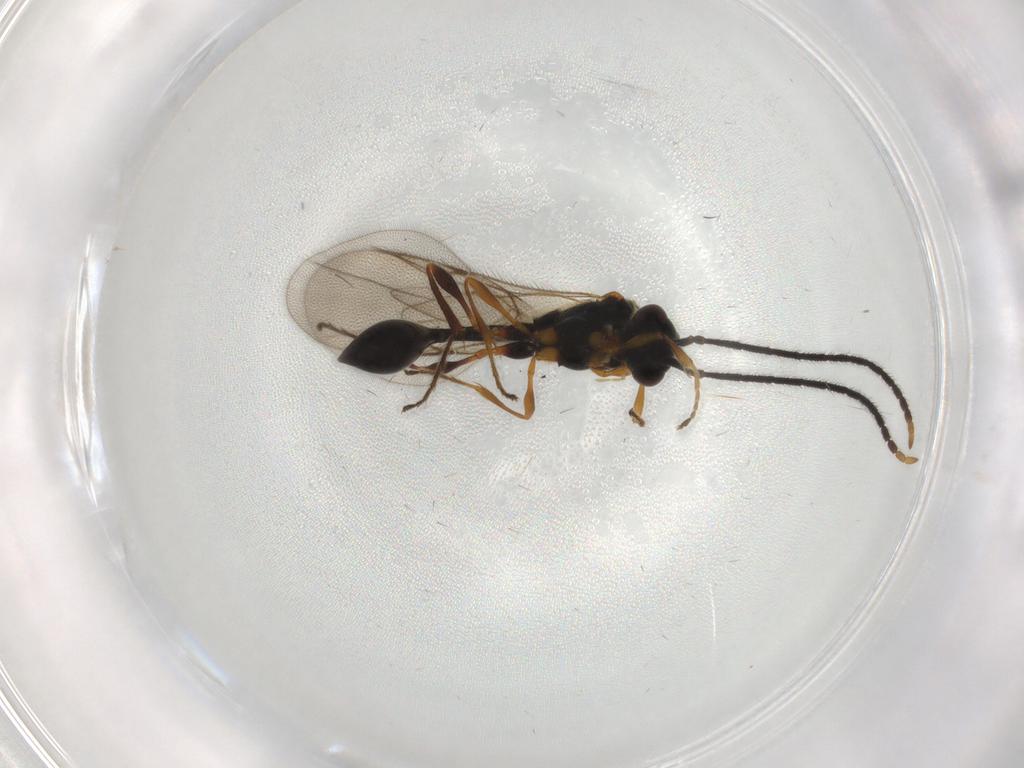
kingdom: Animalia
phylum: Arthropoda
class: Insecta
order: Hymenoptera
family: Diapriidae
